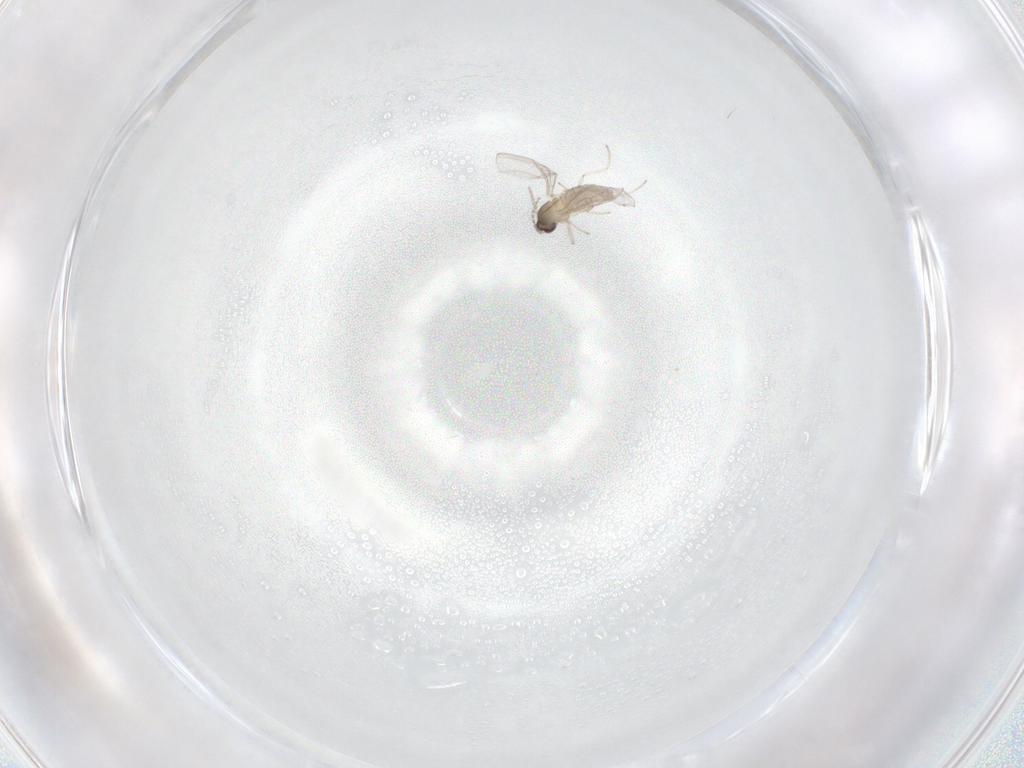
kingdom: Animalia
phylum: Arthropoda
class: Insecta
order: Diptera
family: Cecidomyiidae
